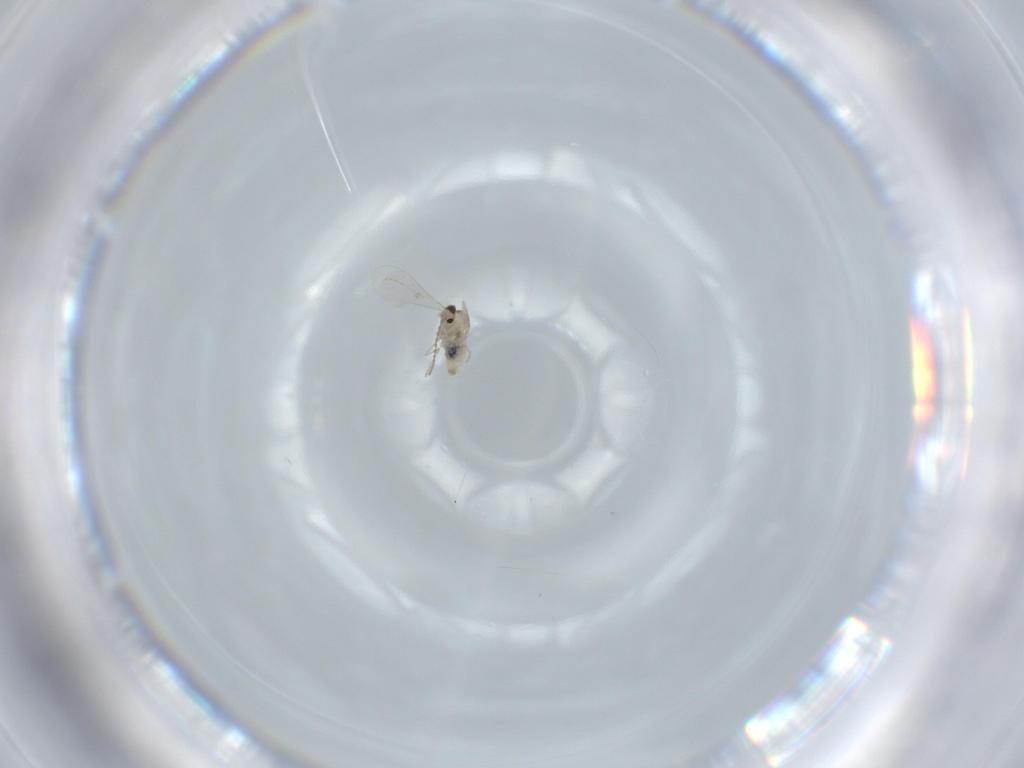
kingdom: Animalia
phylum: Arthropoda
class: Insecta
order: Diptera
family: Cecidomyiidae
